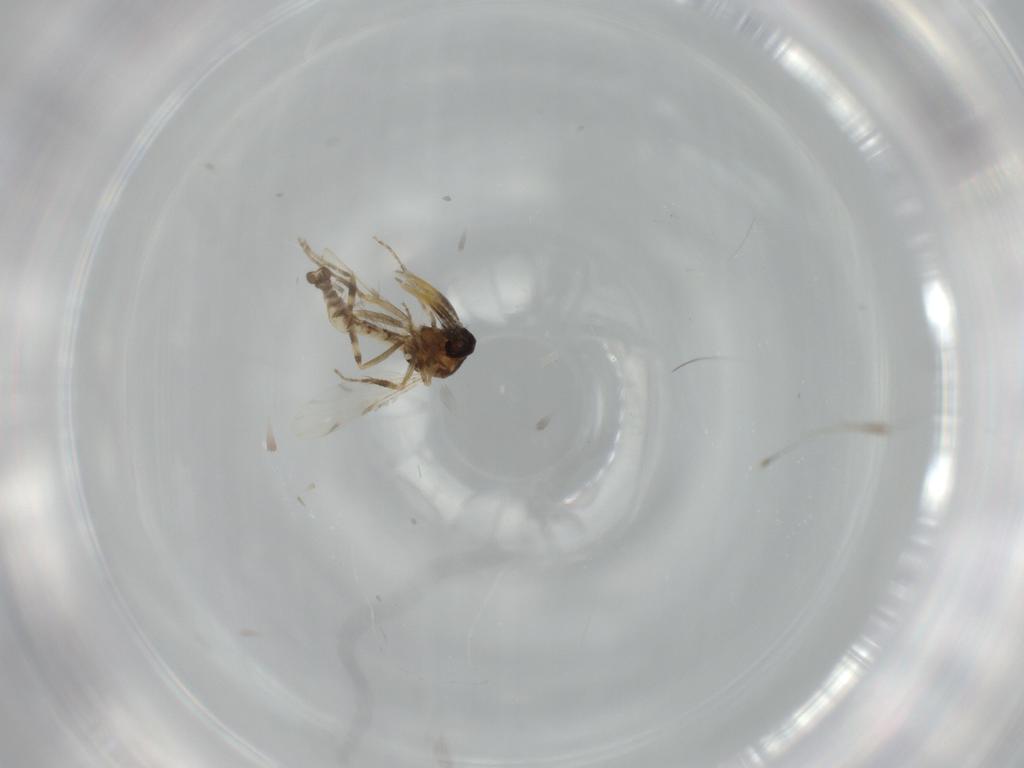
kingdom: Animalia
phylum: Arthropoda
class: Insecta
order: Diptera
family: Ceratopogonidae
